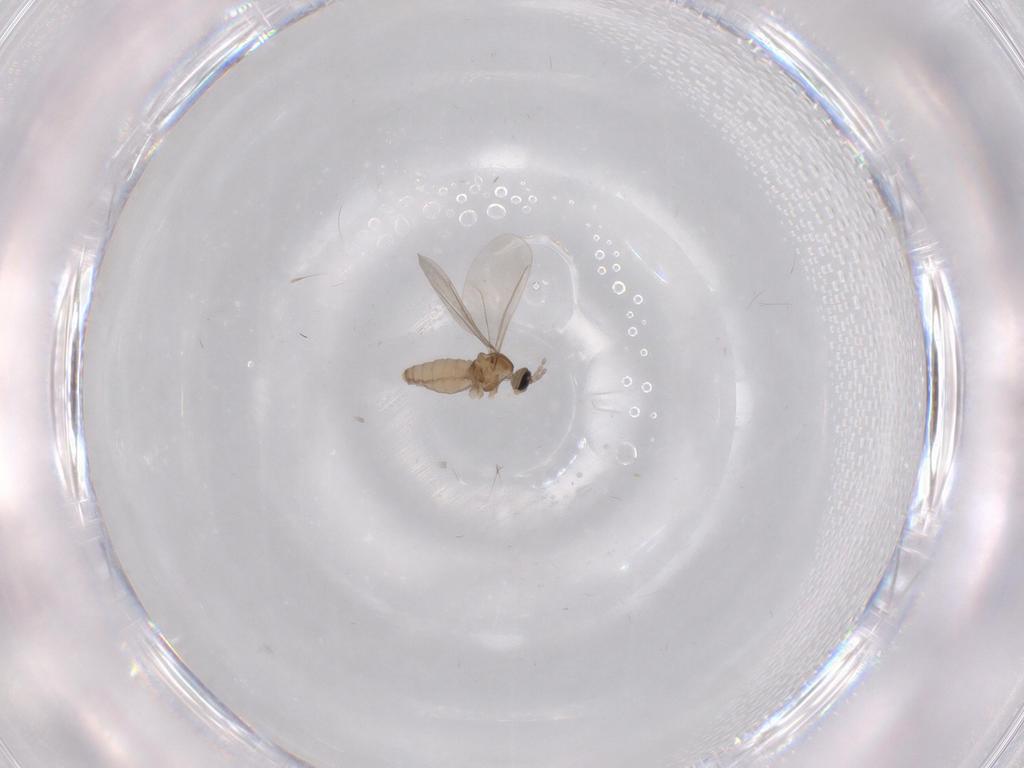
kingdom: Animalia
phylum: Arthropoda
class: Insecta
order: Diptera
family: Cecidomyiidae
